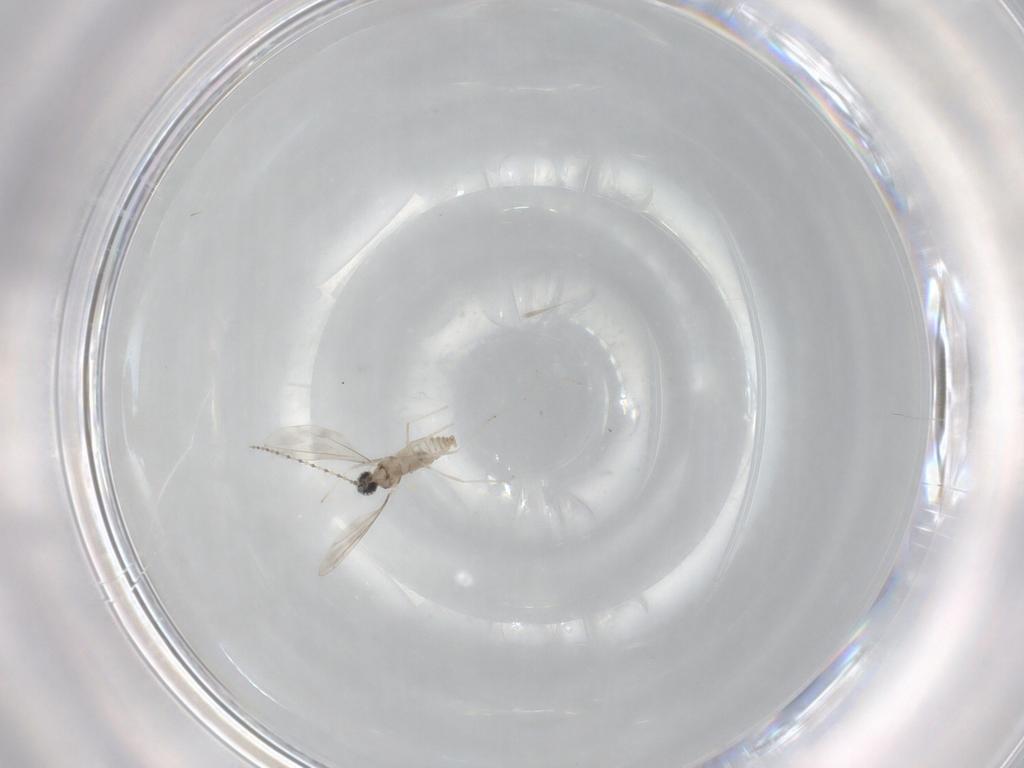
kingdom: Animalia
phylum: Arthropoda
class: Insecta
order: Diptera
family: Cecidomyiidae
